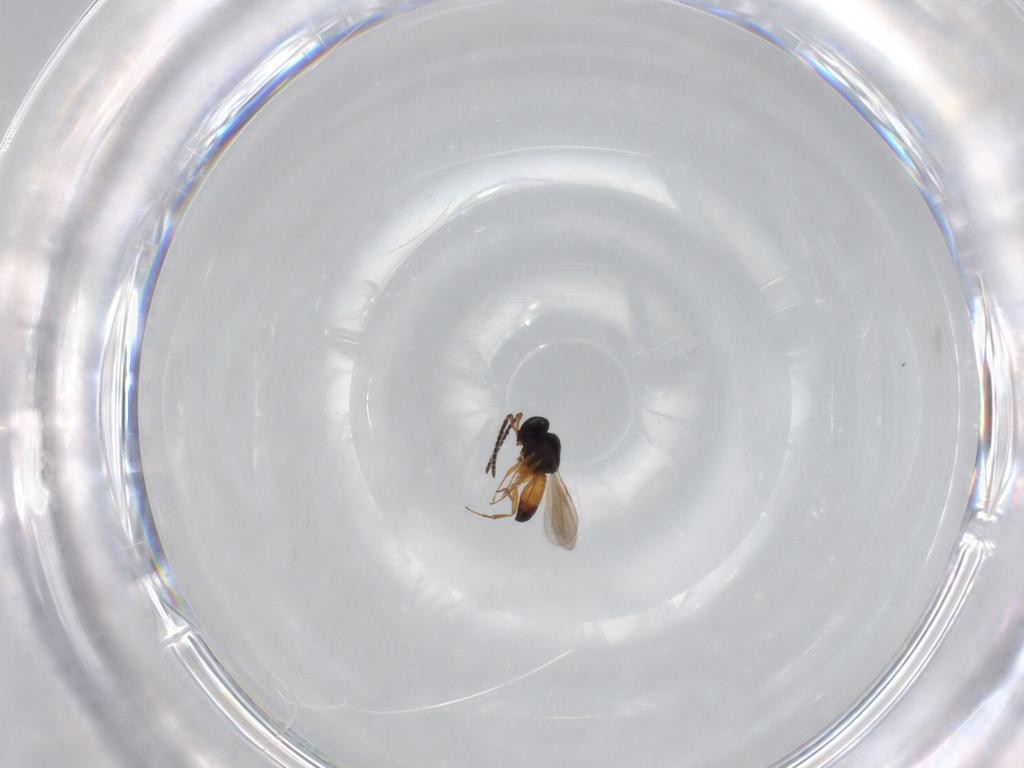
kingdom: Animalia
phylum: Arthropoda
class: Insecta
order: Hymenoptera
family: Scelionidae
